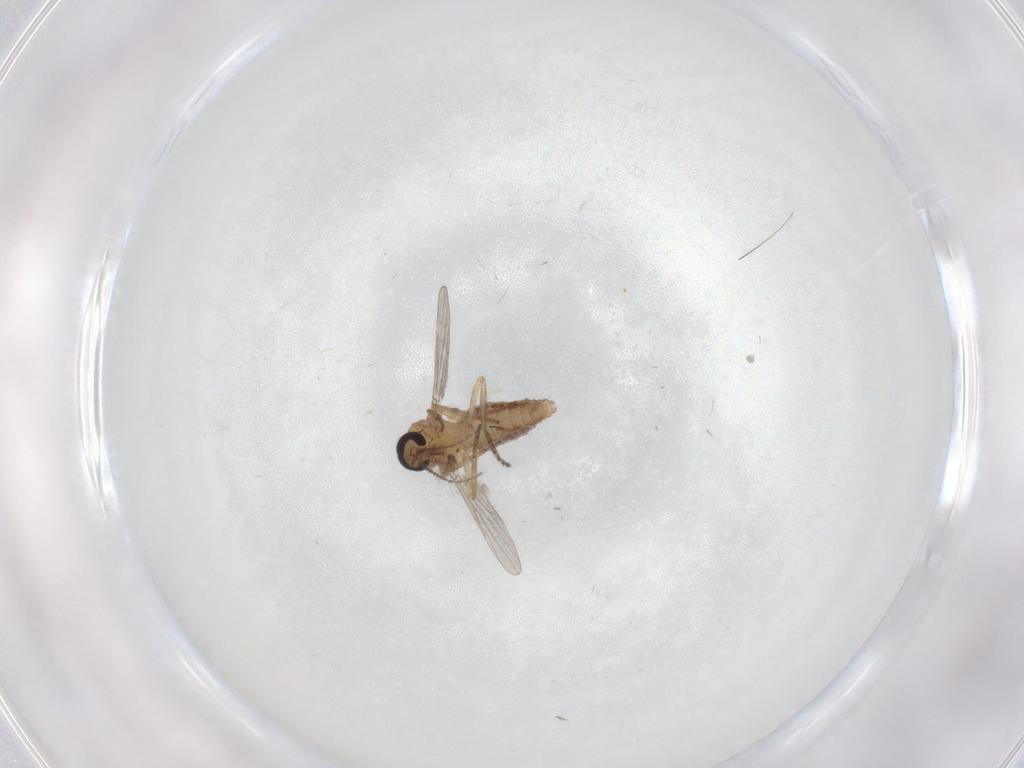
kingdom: Animalia
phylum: Arthropoda
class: Insecta
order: Diptera
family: Ceratopogonidae
